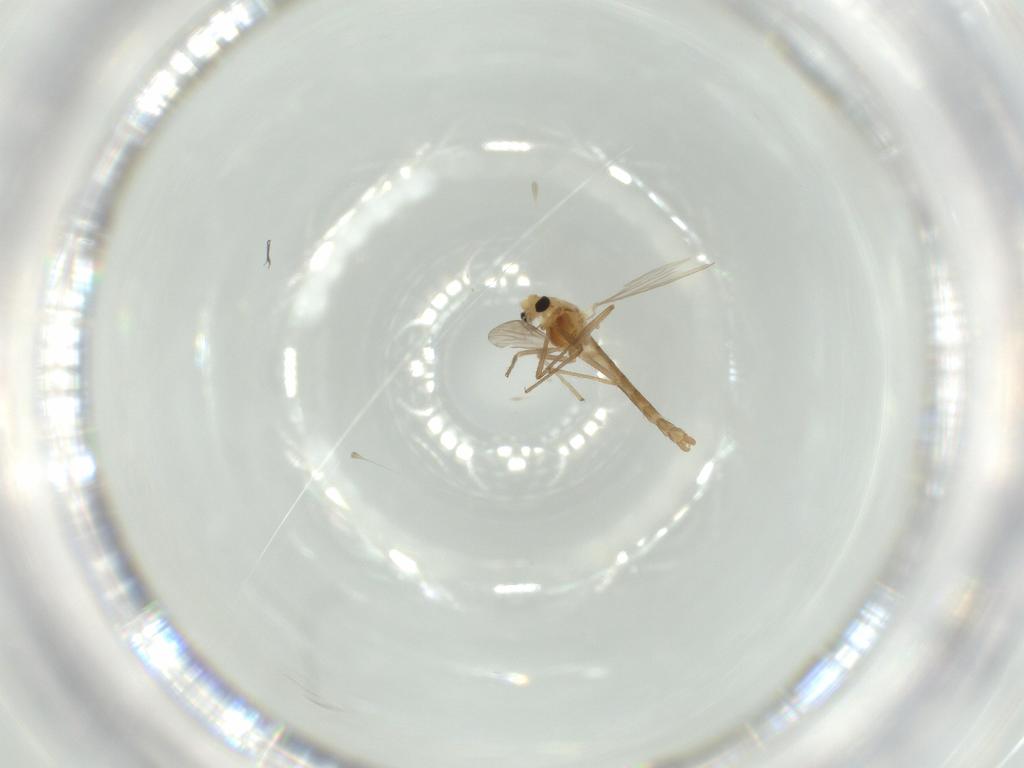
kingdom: Animalia
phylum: Arthropoda
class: Insecta
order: Diptera
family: Chironomidae
